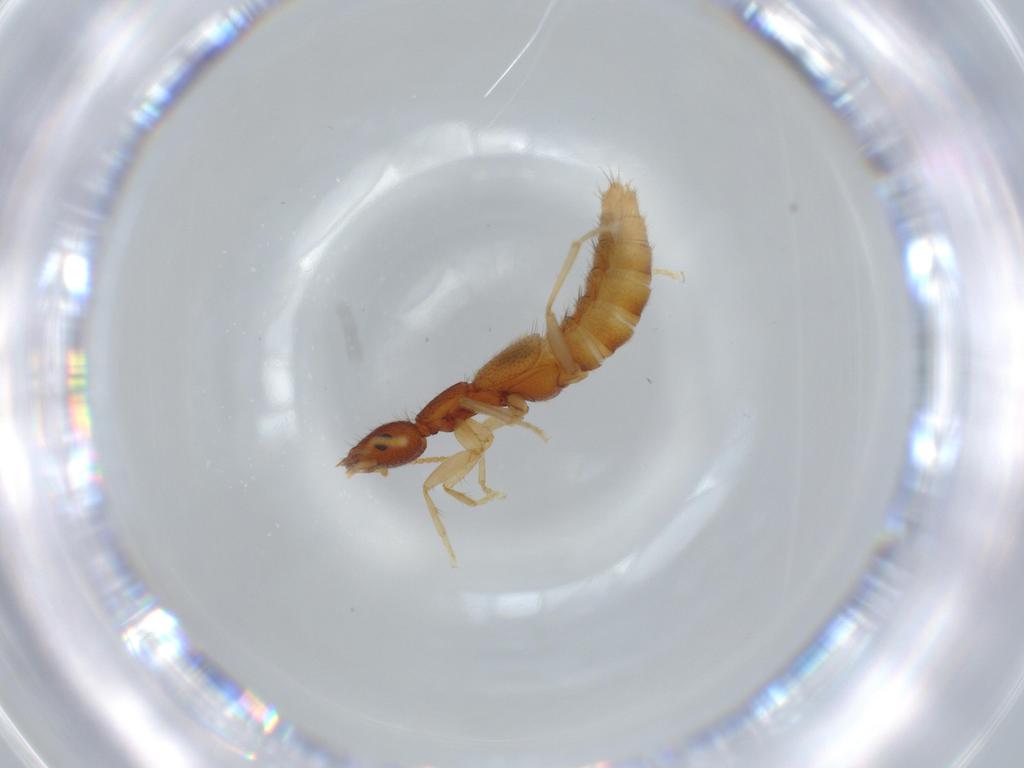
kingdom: Animalia
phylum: Arthropoda
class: Insecta
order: Coleoptera
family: Staphylinidae
